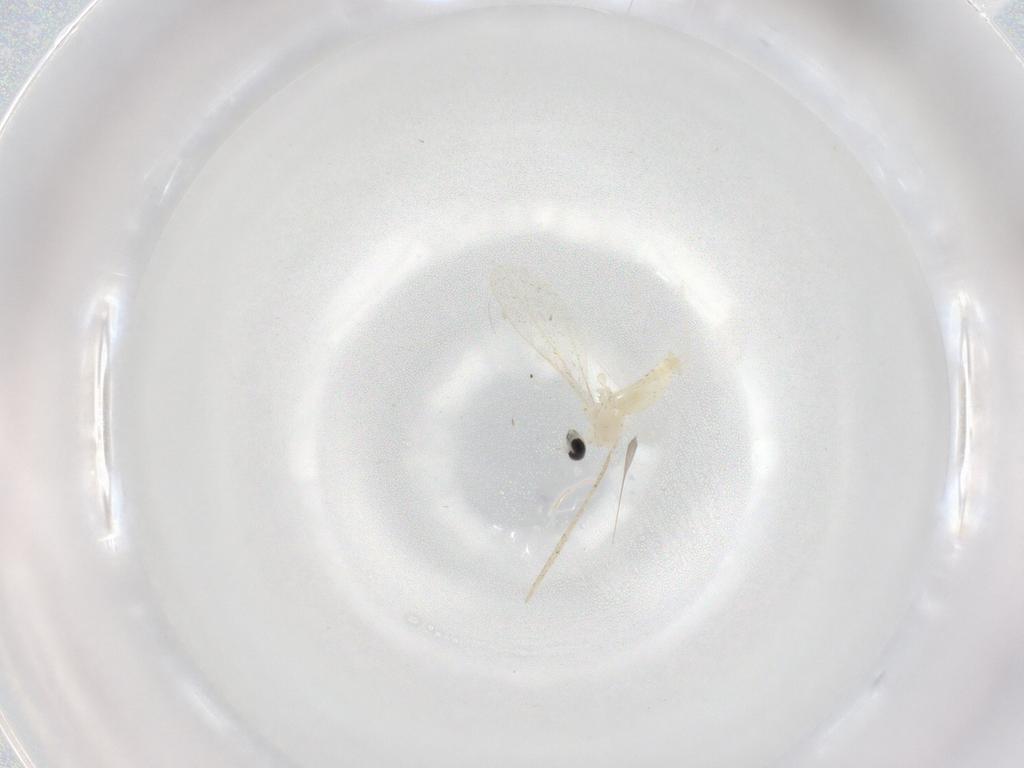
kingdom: Animalia
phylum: Arthropoda
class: Insecta
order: Diptera
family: Cecidomyiidae
